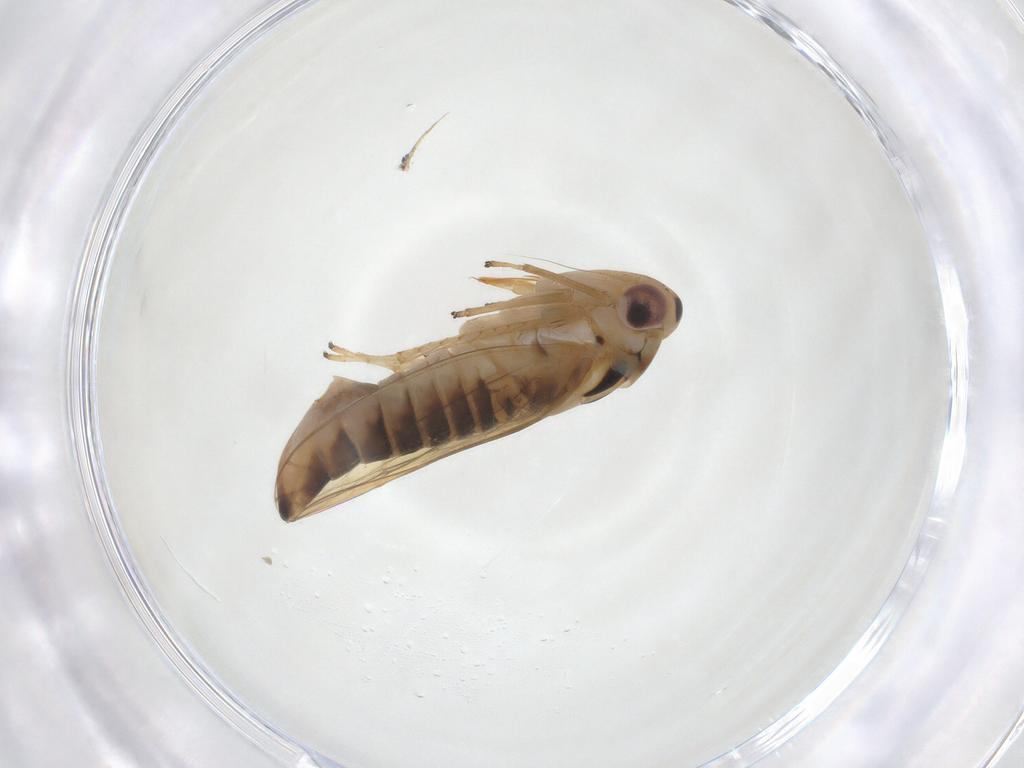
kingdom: Animalia
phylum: Arthropoda
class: Insecta
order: Hemiptera
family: Cicadellidae
